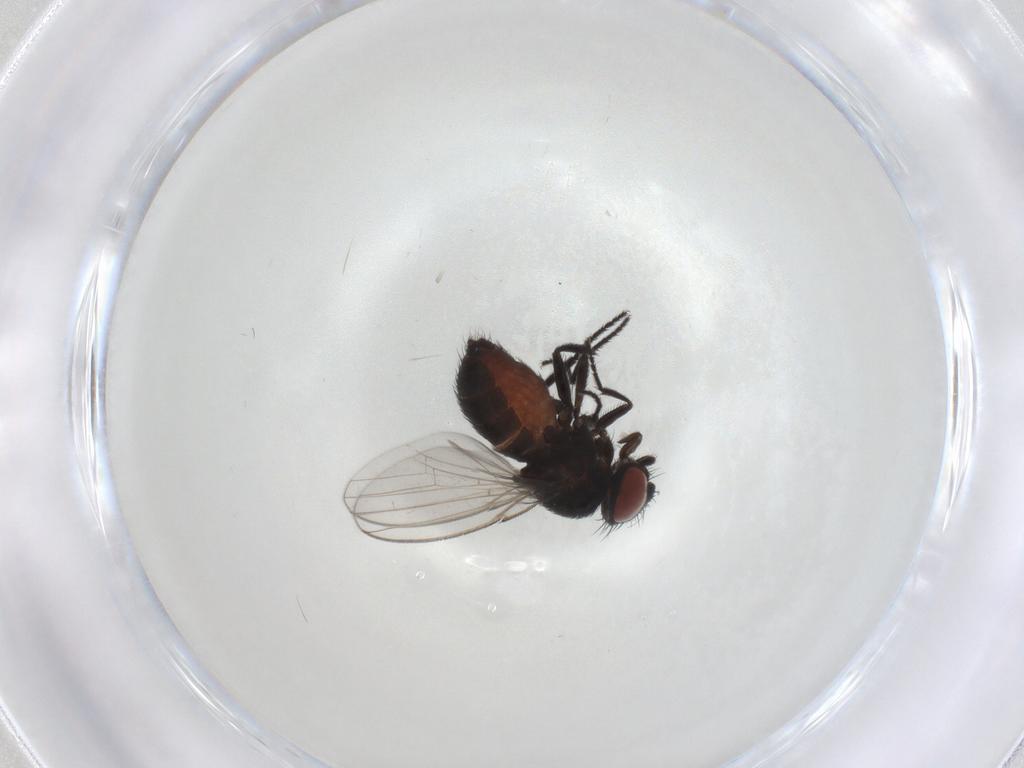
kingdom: Animalia
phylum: Arthropoda
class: Insecta
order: Diptera
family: Milichiidae
